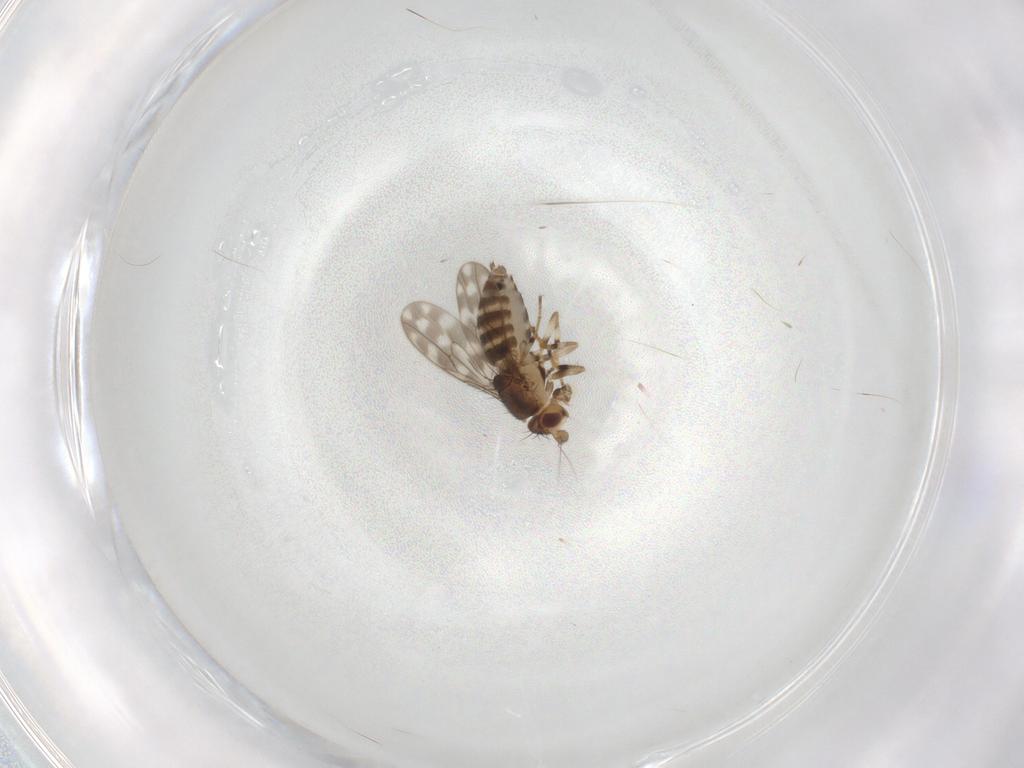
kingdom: Animalia
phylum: Arthropoda
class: Insecta
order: Diptera
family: Sphaeroceridae
